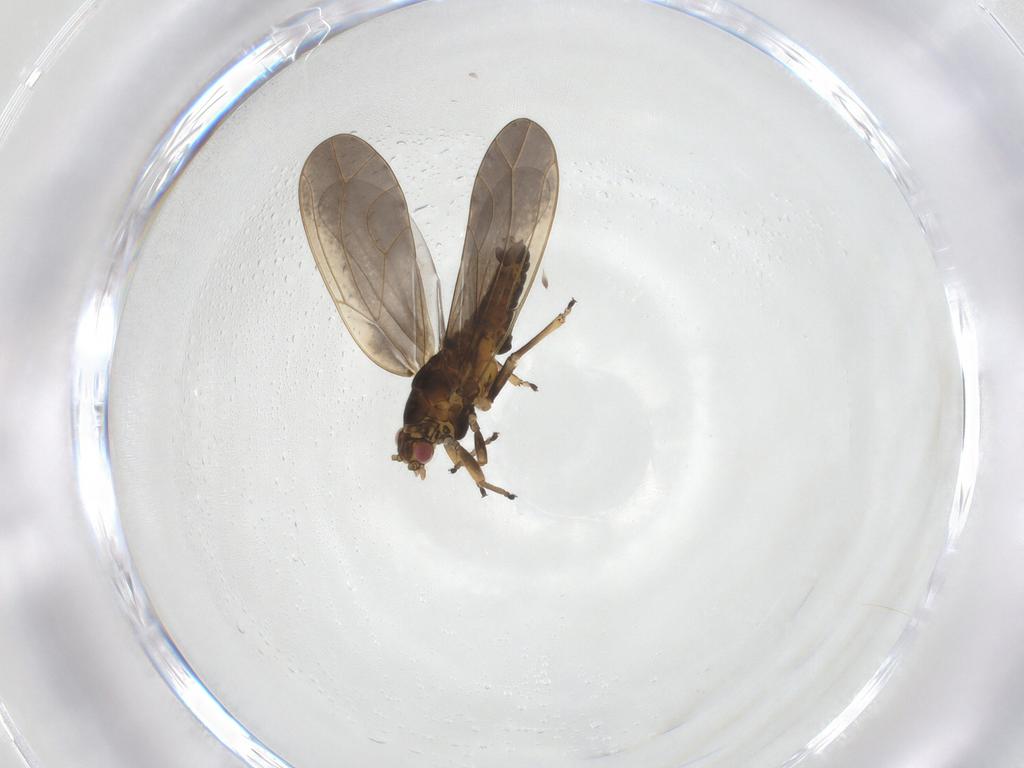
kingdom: Animalia
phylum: Arthropoda
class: Insecta
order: Hemiptera
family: Triozidae
